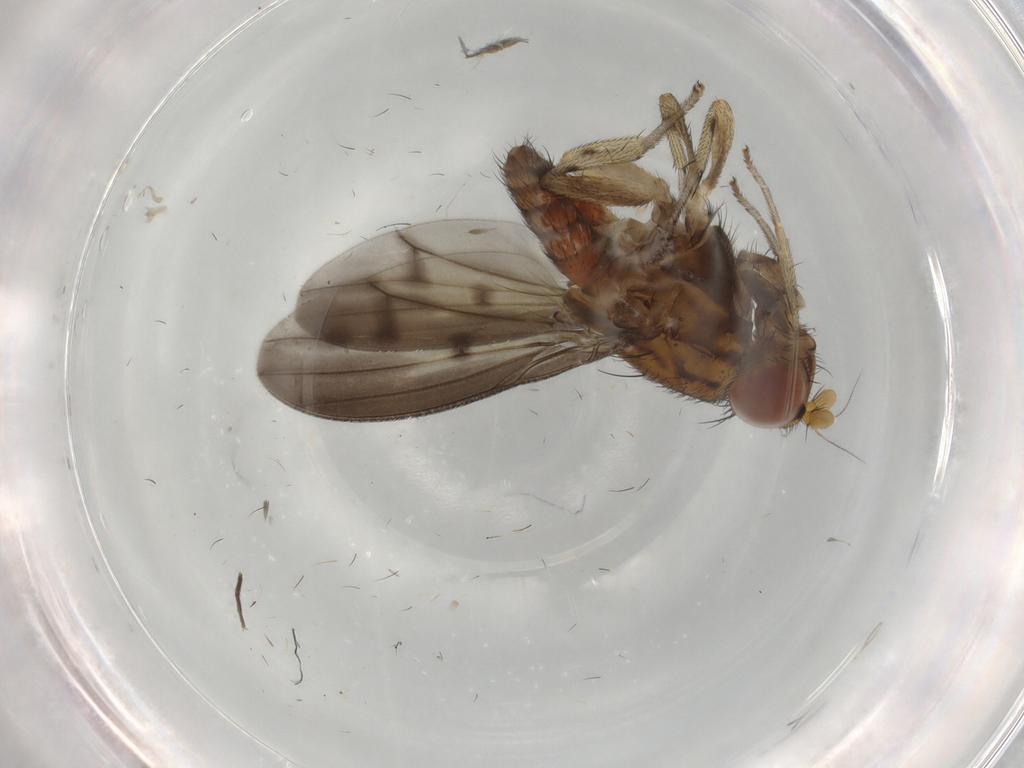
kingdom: Animalia
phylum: Arthropoda
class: Insecta
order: Diptera
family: Lauxaniidae
